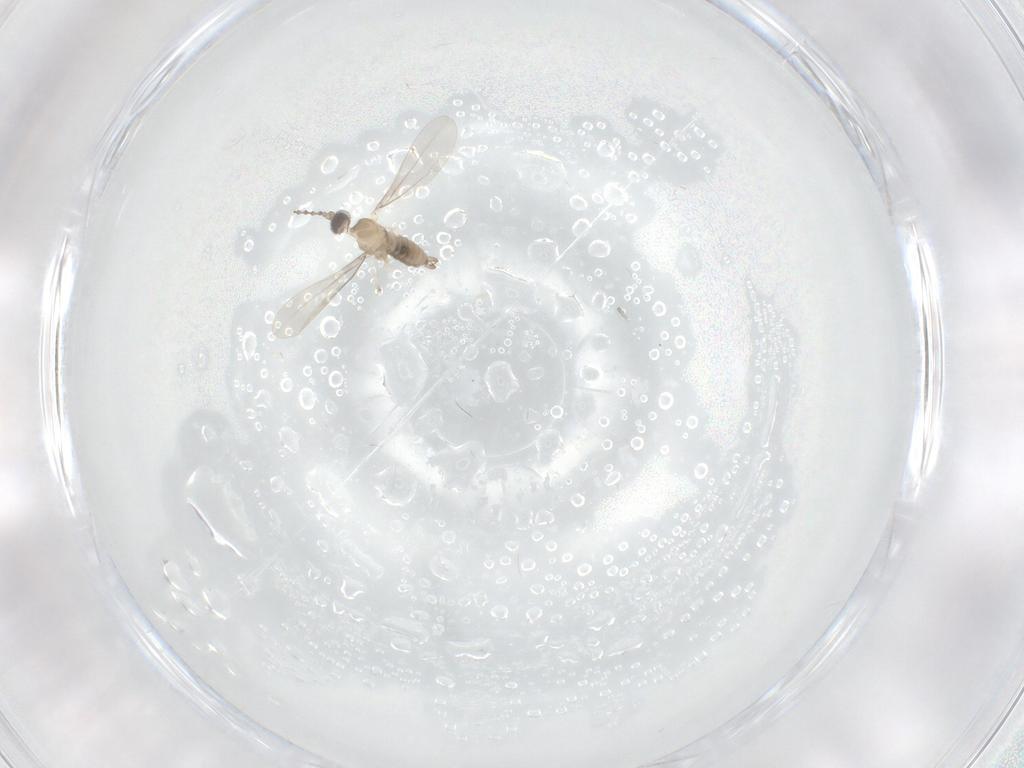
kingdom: Animalia
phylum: Arthropoda
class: Insecta
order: Diptera
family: Chironomidae
